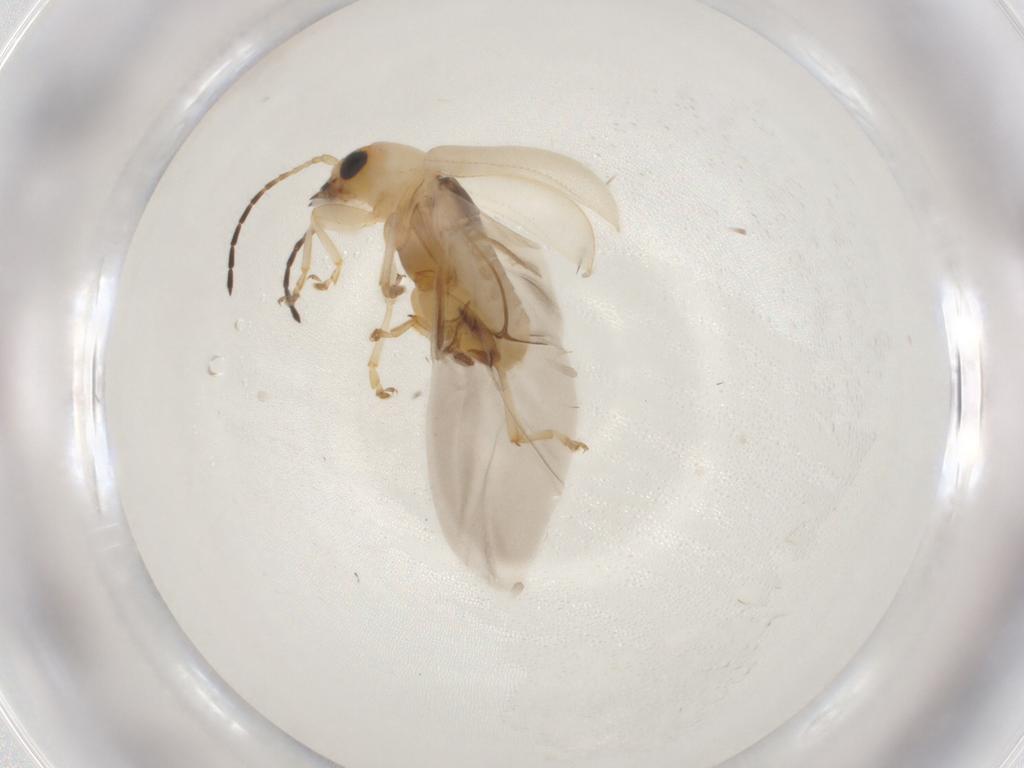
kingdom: Animalia
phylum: Arthropoda
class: Insecta
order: Coleoptera
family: Chrysomelidae
